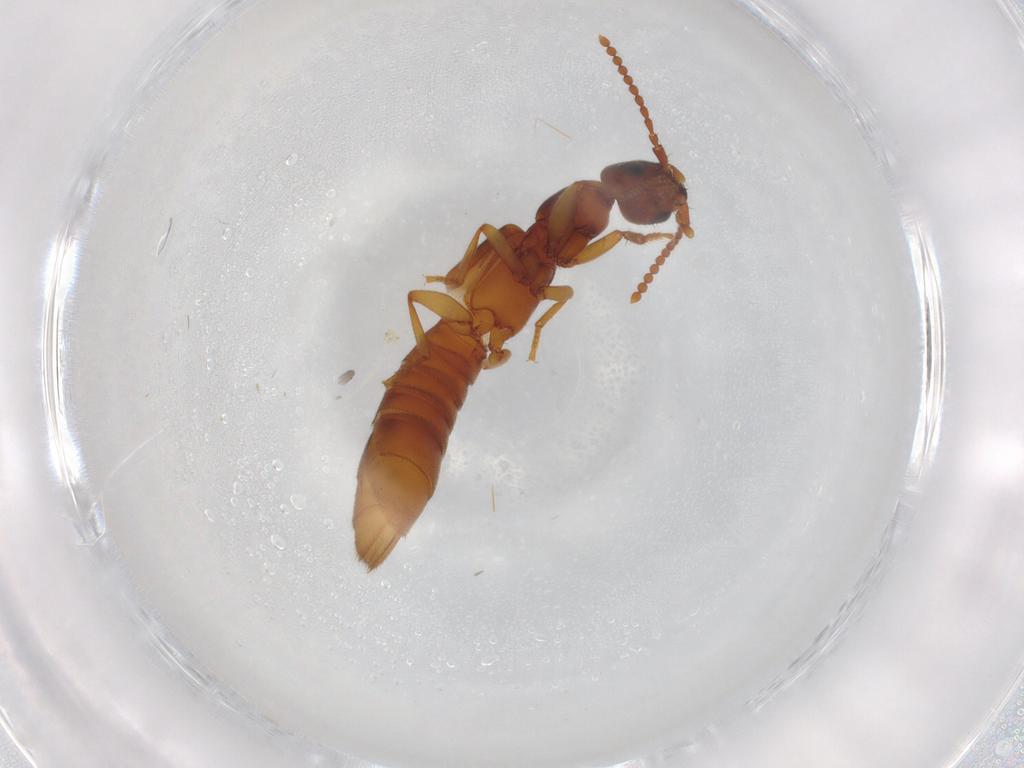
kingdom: Animalia
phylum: Arthropoda
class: Insecta
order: Coleoptera
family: Staphylinidae
